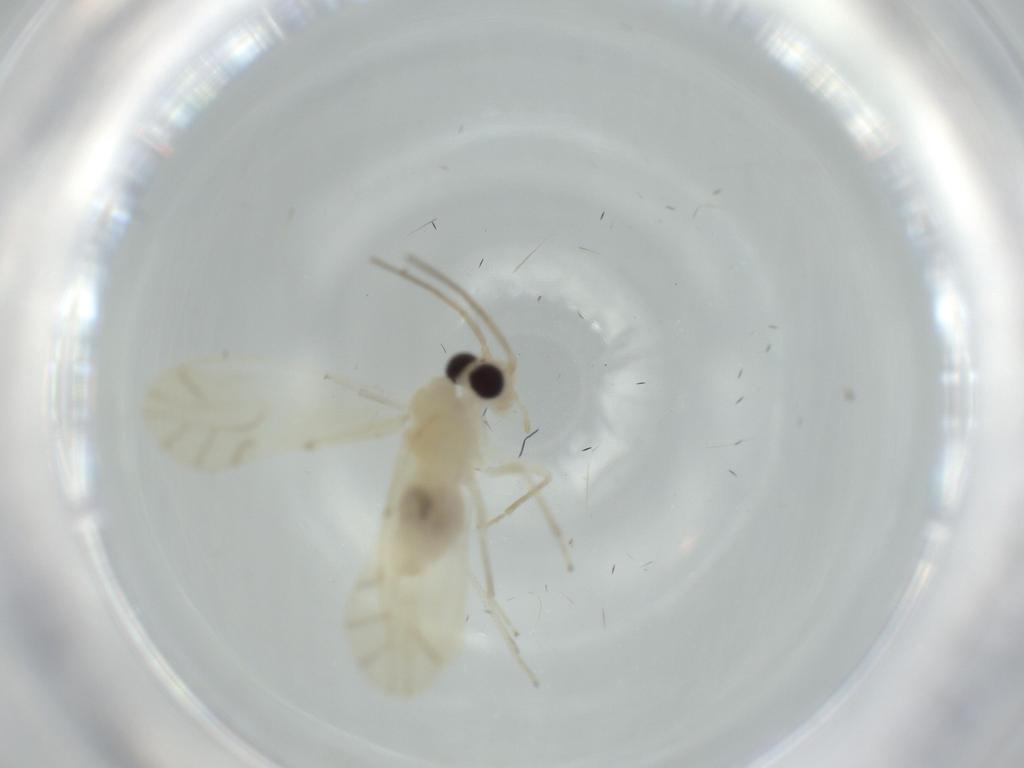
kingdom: Animalia
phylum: Arthropoda
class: Insecta
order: Psocodea
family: Caeciliusidae
